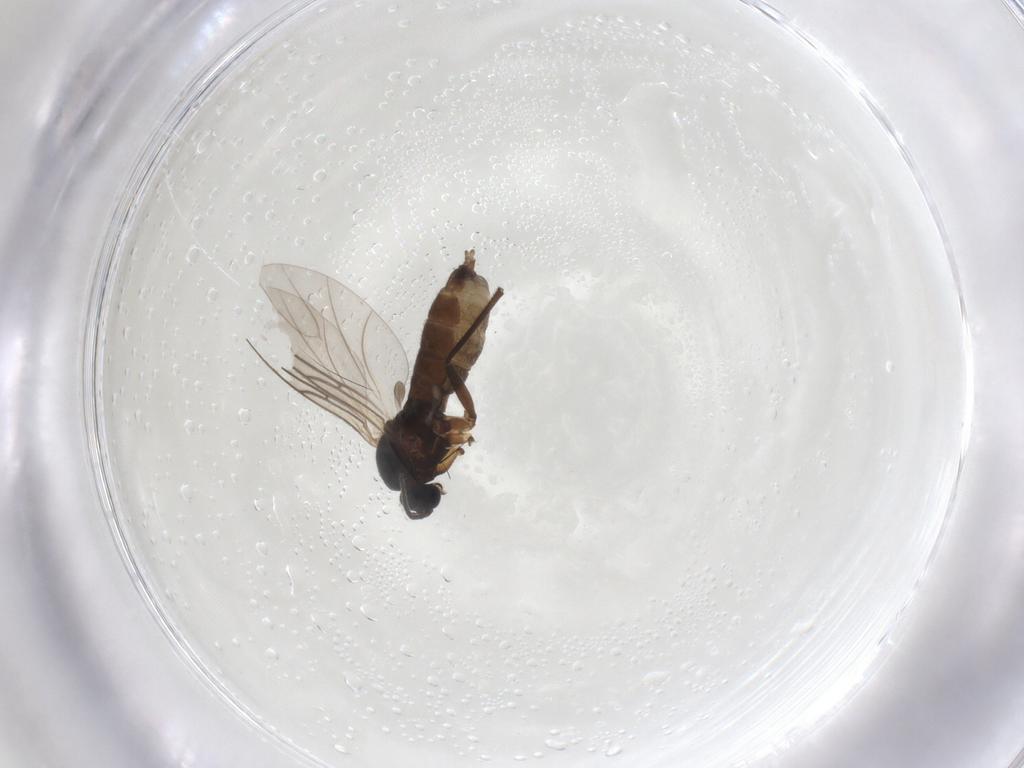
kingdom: Animalia
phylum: Arthropoda
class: Insecta
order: Diptera
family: Sciaridae
